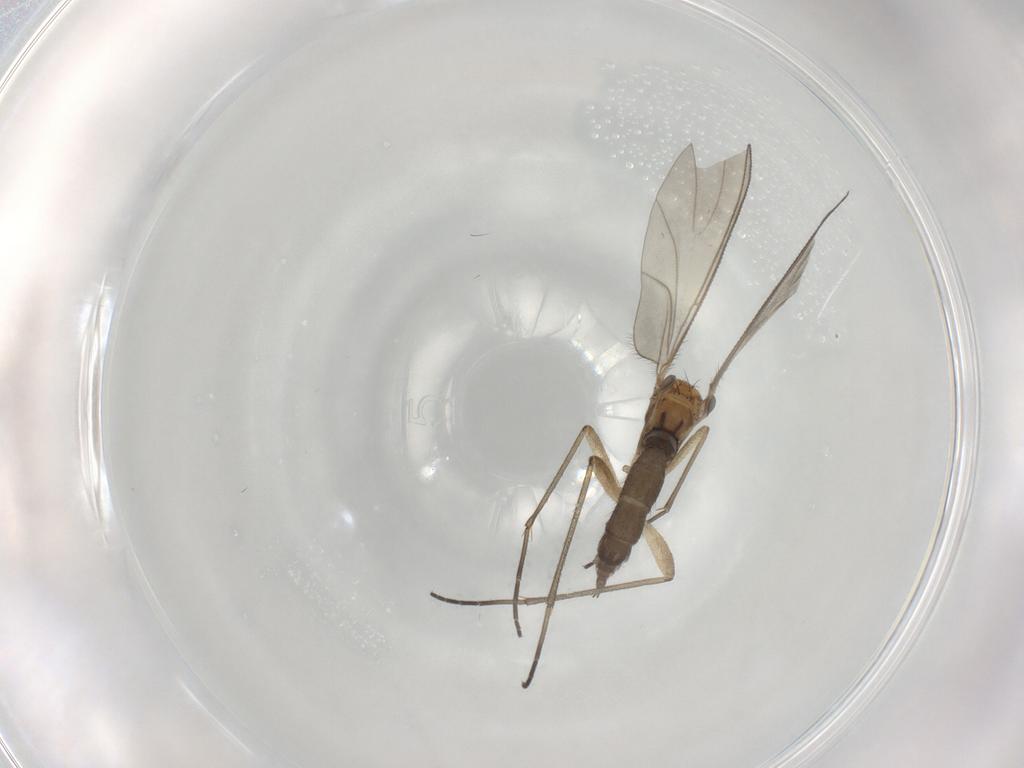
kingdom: Animalia
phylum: Arthropoda
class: Insecta
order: Diptera
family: Sciaridae
